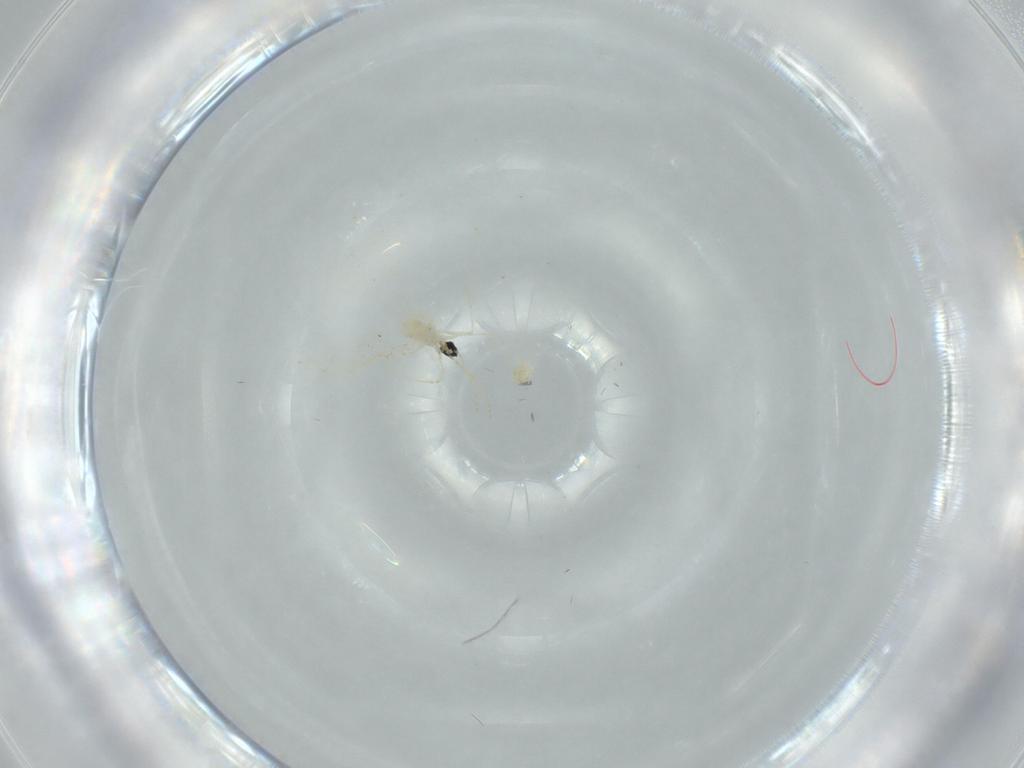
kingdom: Animalia
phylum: Arthropoda
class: Insecta
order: Diptera
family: Cecidomyiidae
